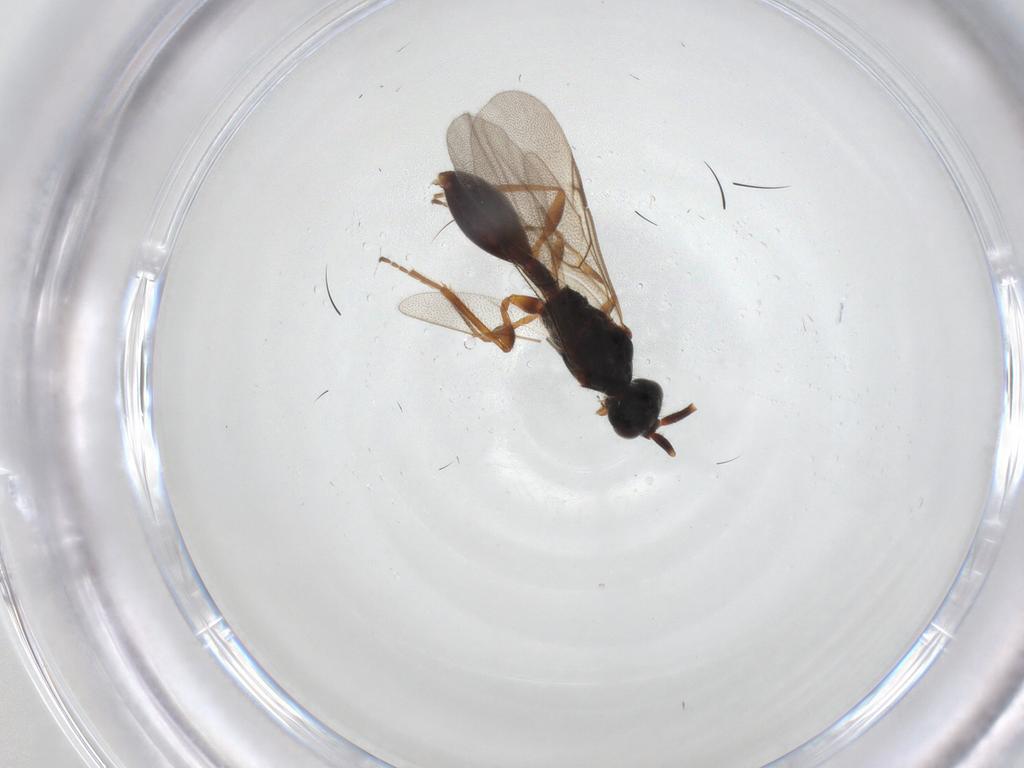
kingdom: Animalia
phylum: Arthropoda
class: Insecta
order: Hymenoptera
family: Diapriidae
